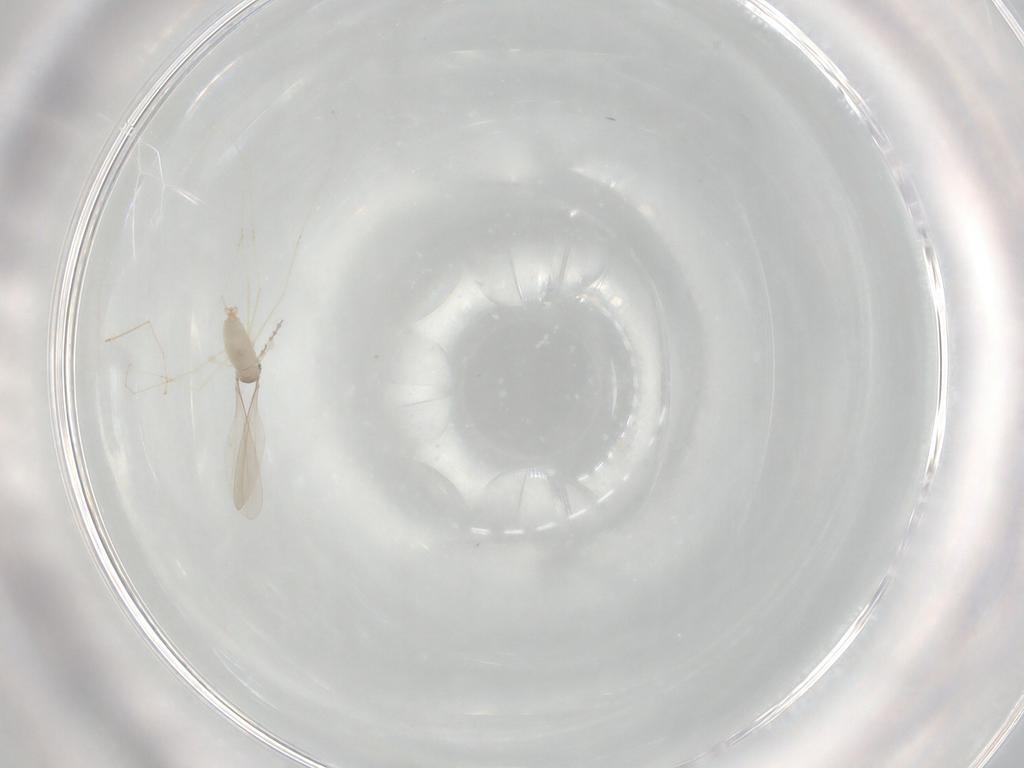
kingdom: Animalia
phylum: Arthropoda
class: Insecta
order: Diptera
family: Cecidomyiidae
